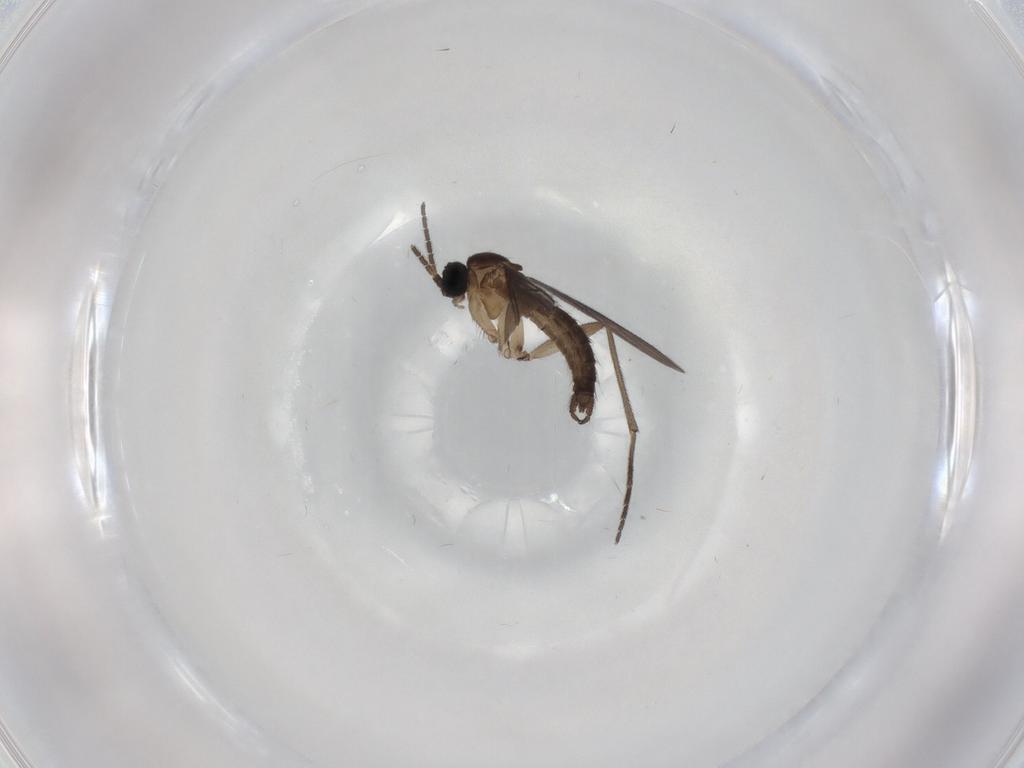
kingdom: Animalia
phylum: Arthropoda
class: Insecta
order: Diptera
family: Sciaridae
